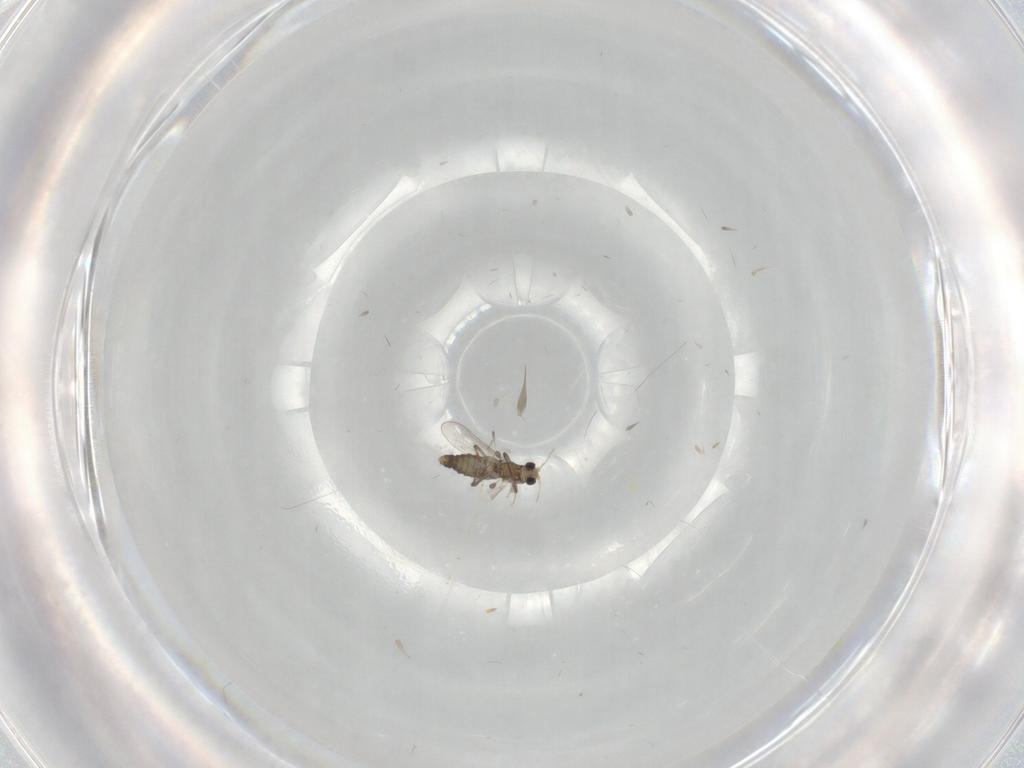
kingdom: Animalia
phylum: Arthropoda
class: Insecta
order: Diptera
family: Chironomidae
